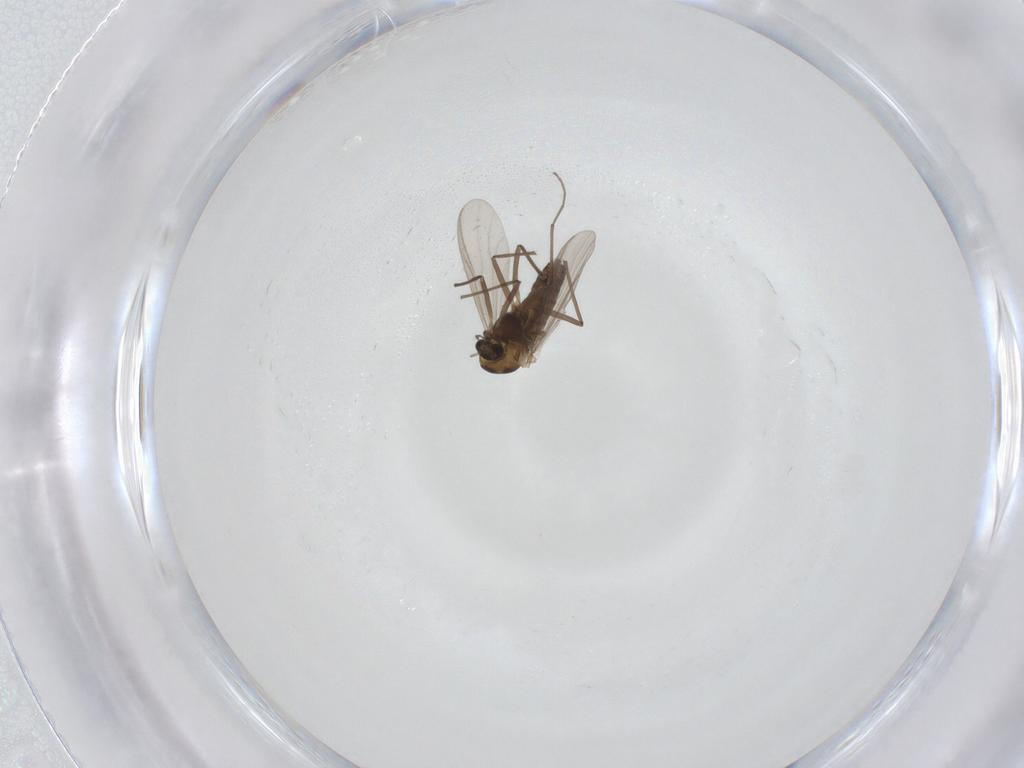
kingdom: Animalia
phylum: Arthropoda
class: Insecta
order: Diptera
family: Chironomidae
